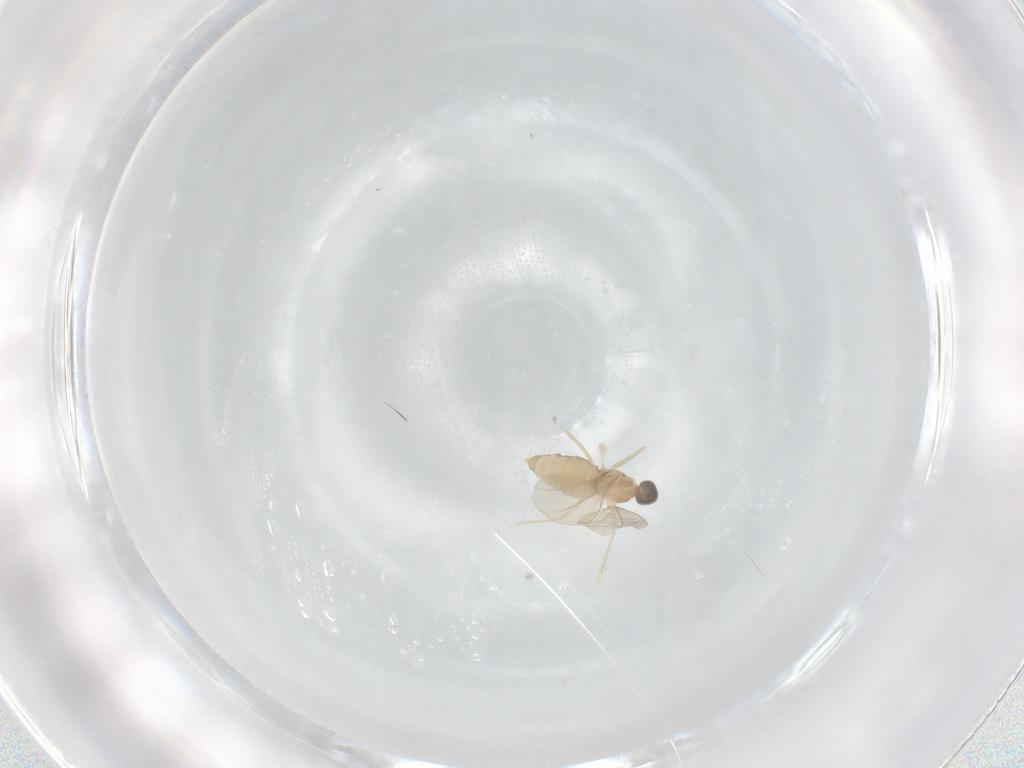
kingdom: Animalia
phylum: Arthropoda
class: Insecta
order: Diptera
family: Cecidomyiidae
